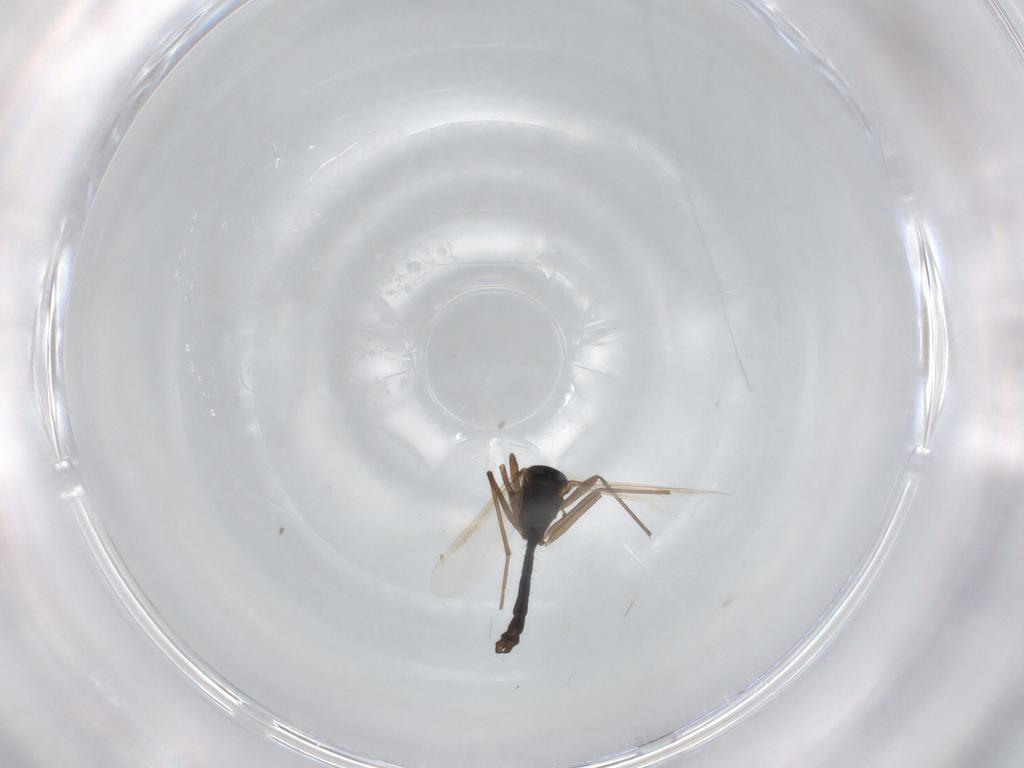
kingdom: Animalia
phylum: Arthropoda
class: Insecta
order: Diptera
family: Chironomidae
